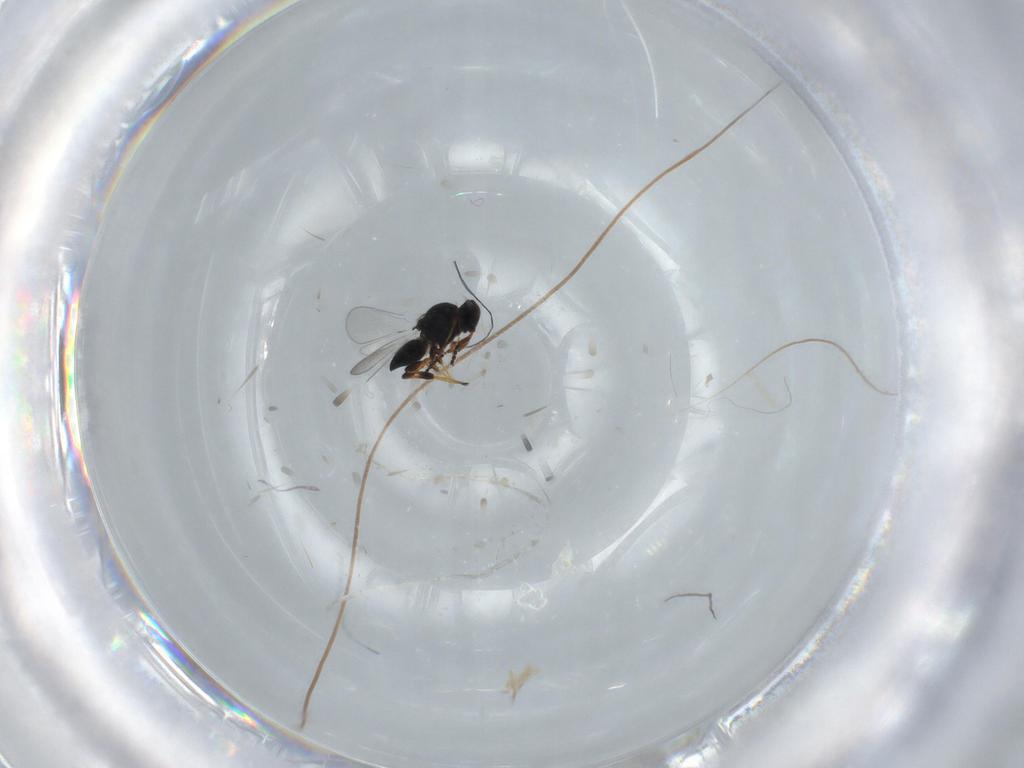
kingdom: Animalia
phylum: Arthropoda
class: Insecta
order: Hymenoptera
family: Platygastridae
